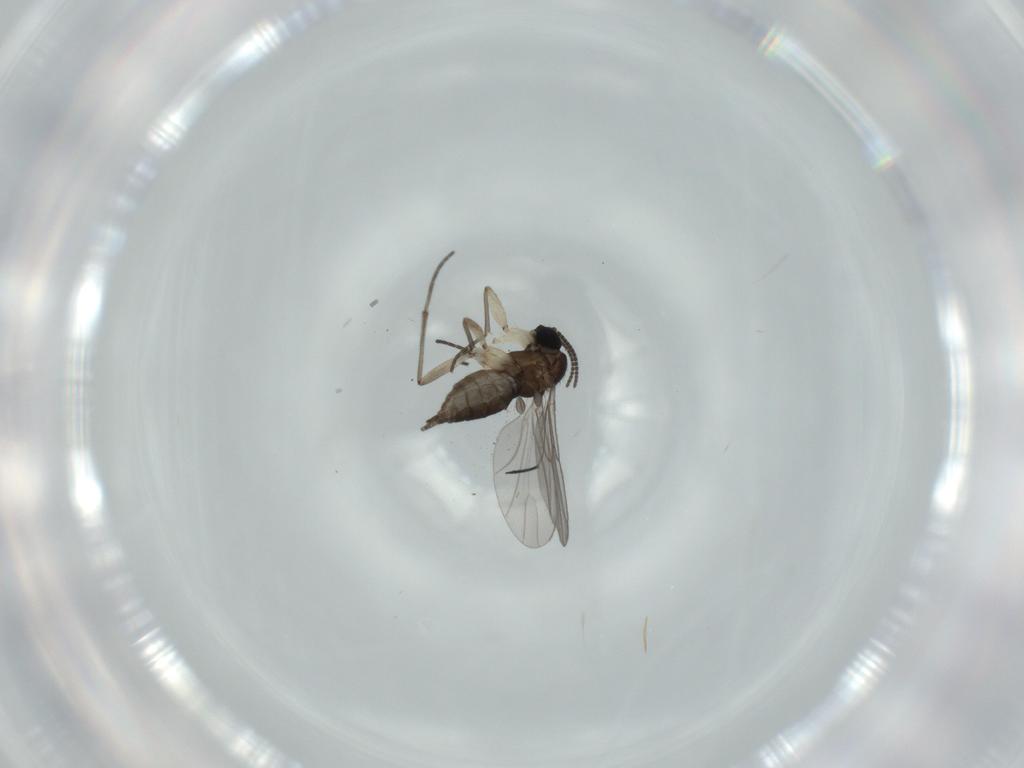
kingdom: Animalia
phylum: Arthropoda
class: Insecta
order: Diptera
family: Sciaridae
